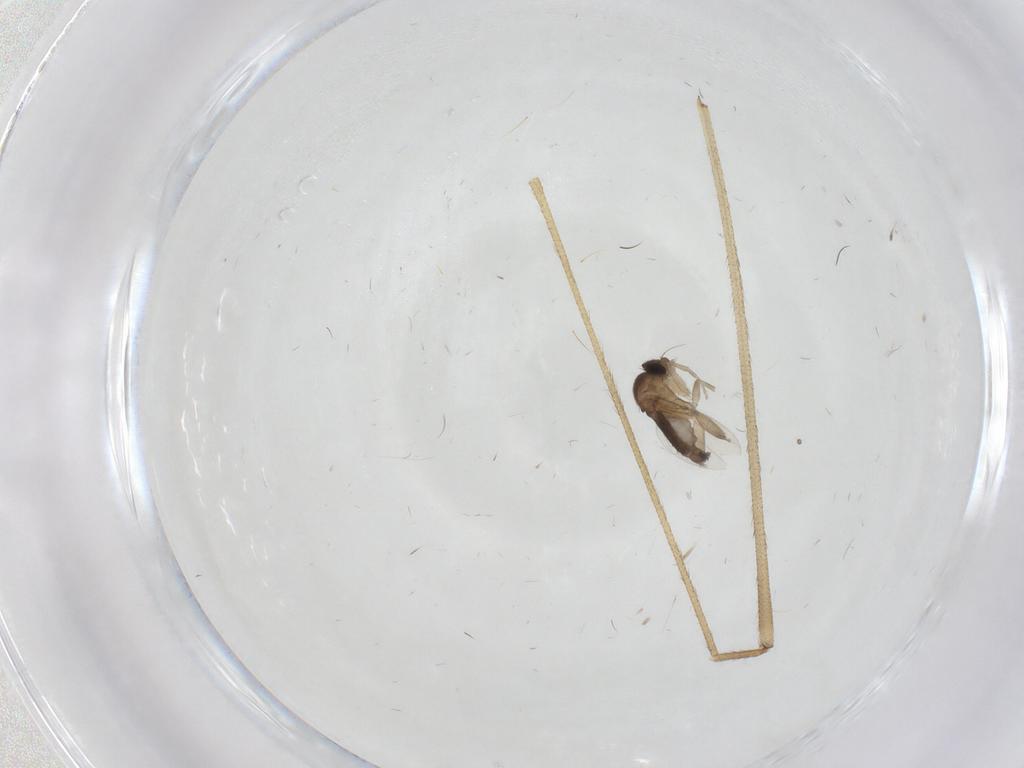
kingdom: Animalia
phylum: Arthropoda
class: Insecta
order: Diptera
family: Phoridae
